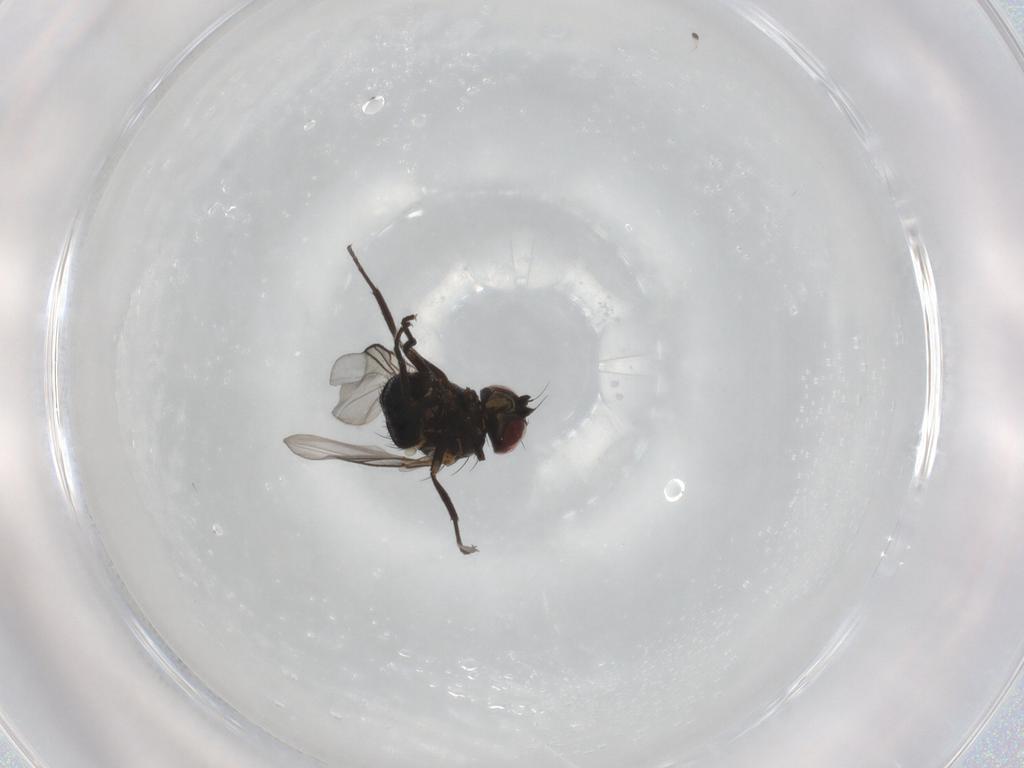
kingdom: Animalia
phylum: Arthropoda
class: Insecta
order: Diptera
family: Agromyzidae
